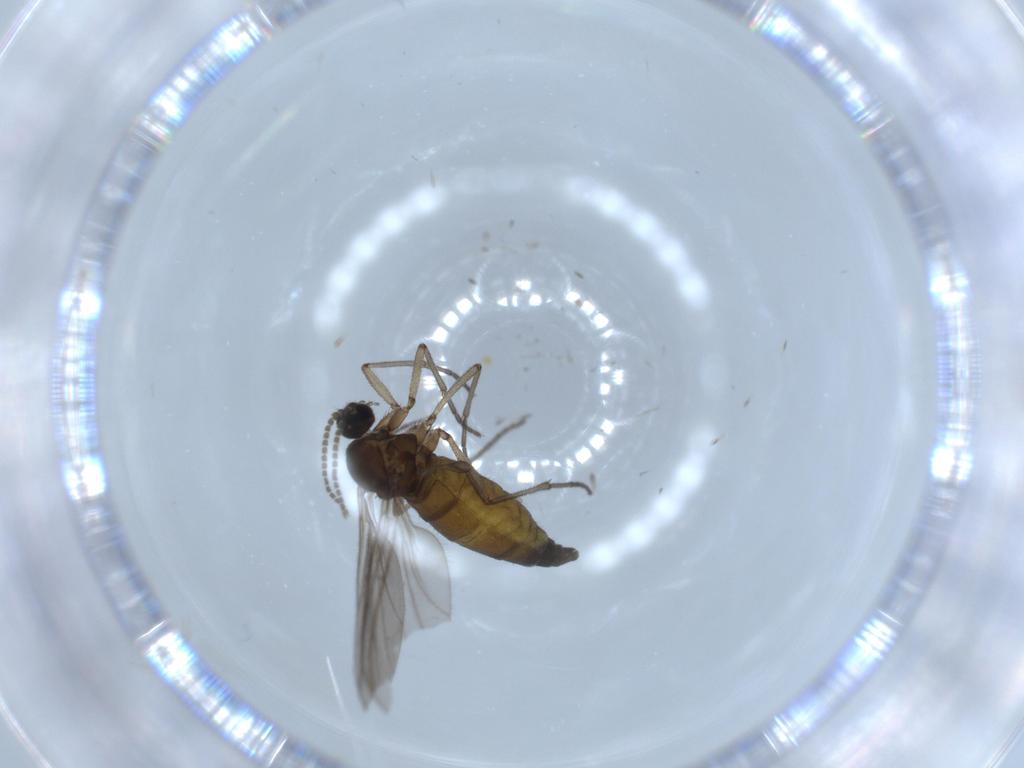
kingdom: Animalia
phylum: Arthropoda
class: Insecta
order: Diptera
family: Sciaridae
